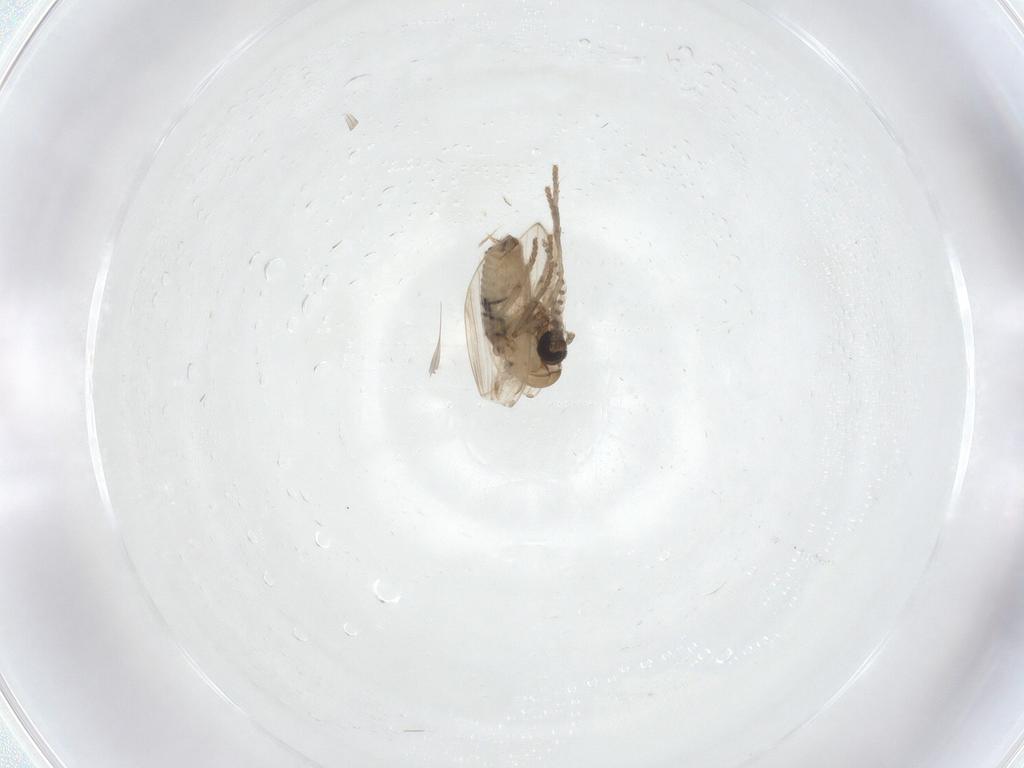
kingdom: Animalia
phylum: Arthropoda
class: Insecta
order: Diptera
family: Psychodidae
